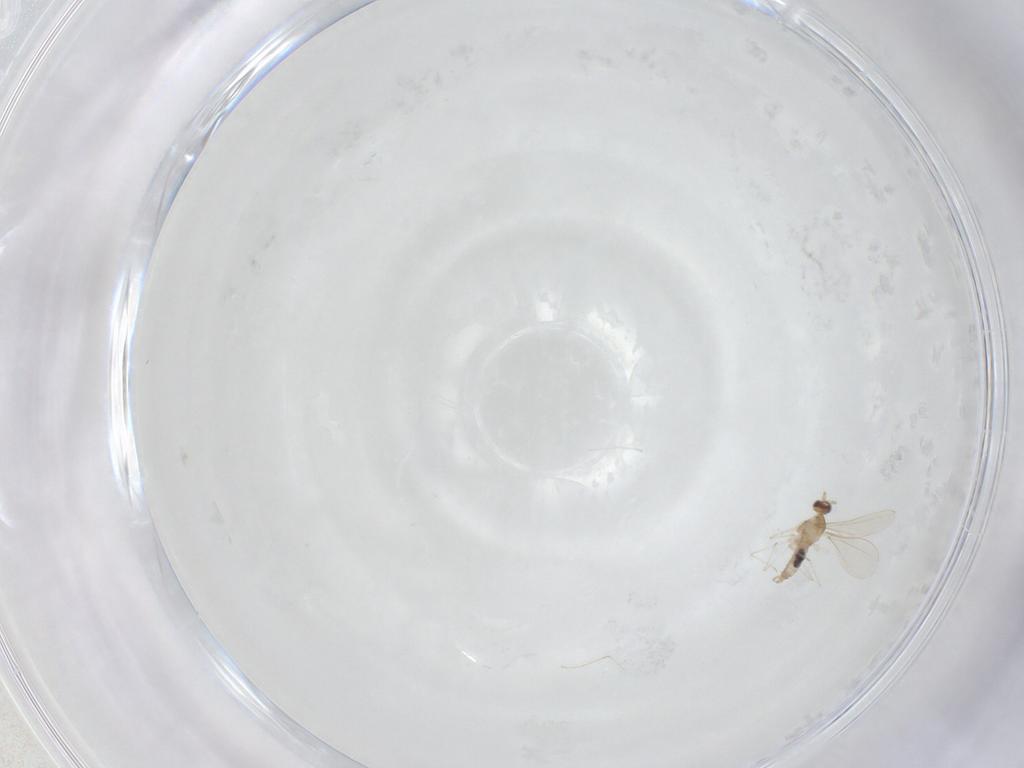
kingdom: Animalia
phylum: Arthropoda
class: Insecta
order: Diptera
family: Cecidomyiidae
